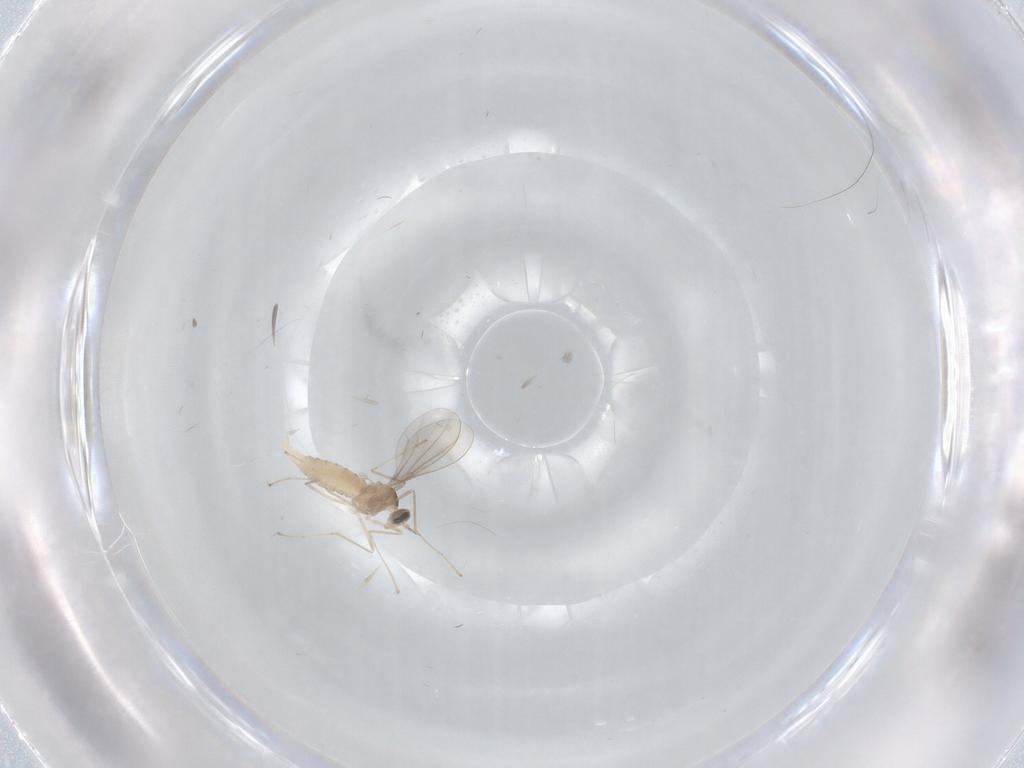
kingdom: Animalia
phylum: Arthropoda
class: Insecta
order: Diptera
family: Cecidomyiidae
